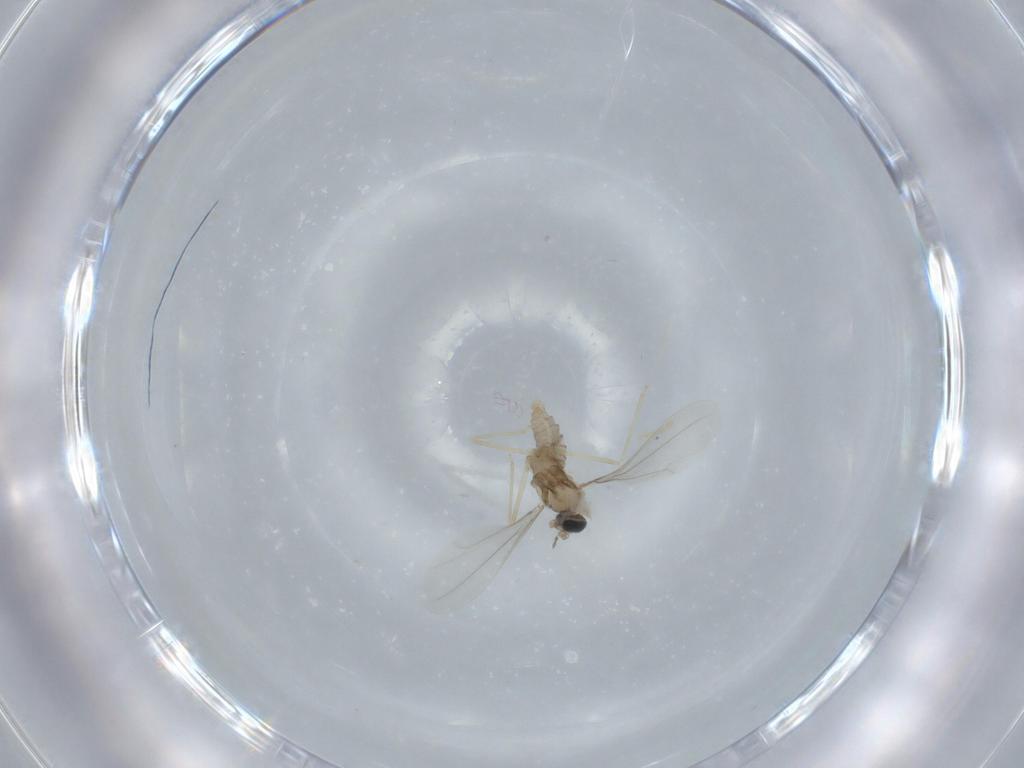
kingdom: Animalia
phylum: Arthropoda
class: Insecta
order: Diptera
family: Cecidomyiidae
